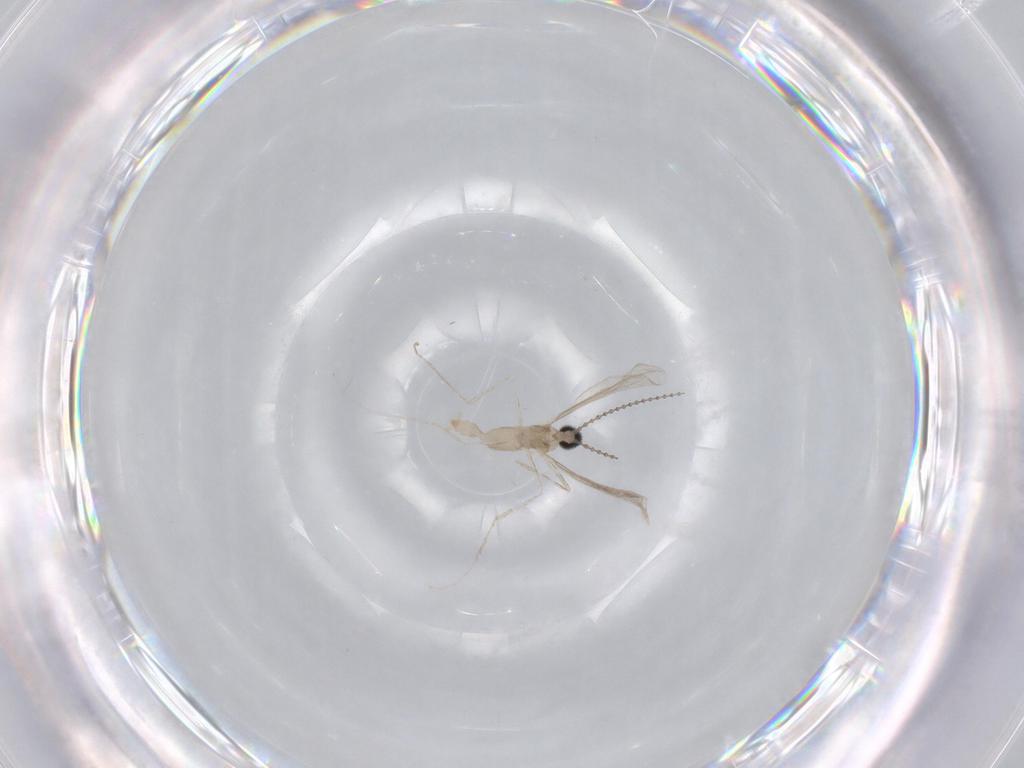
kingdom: Animalia
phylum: Arthropoda
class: Insecta
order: Diptera
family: Cecidomyiidae
